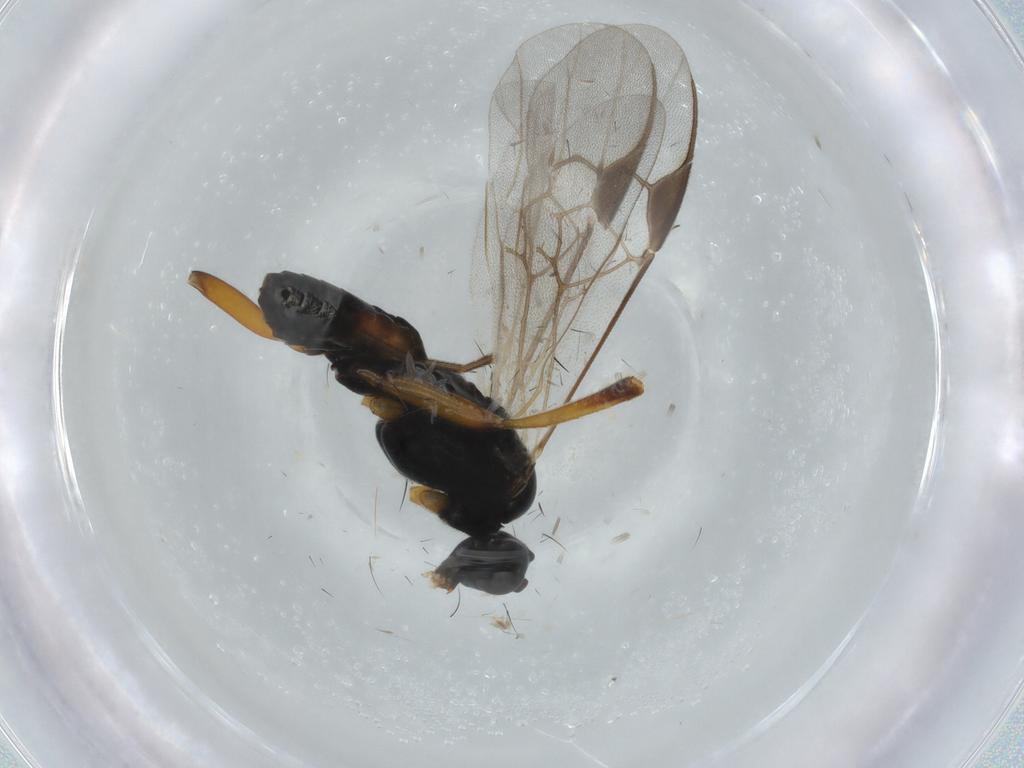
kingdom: Animalia
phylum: Arthropoda
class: Insecta
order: Hymenoptera
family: Braconidae
